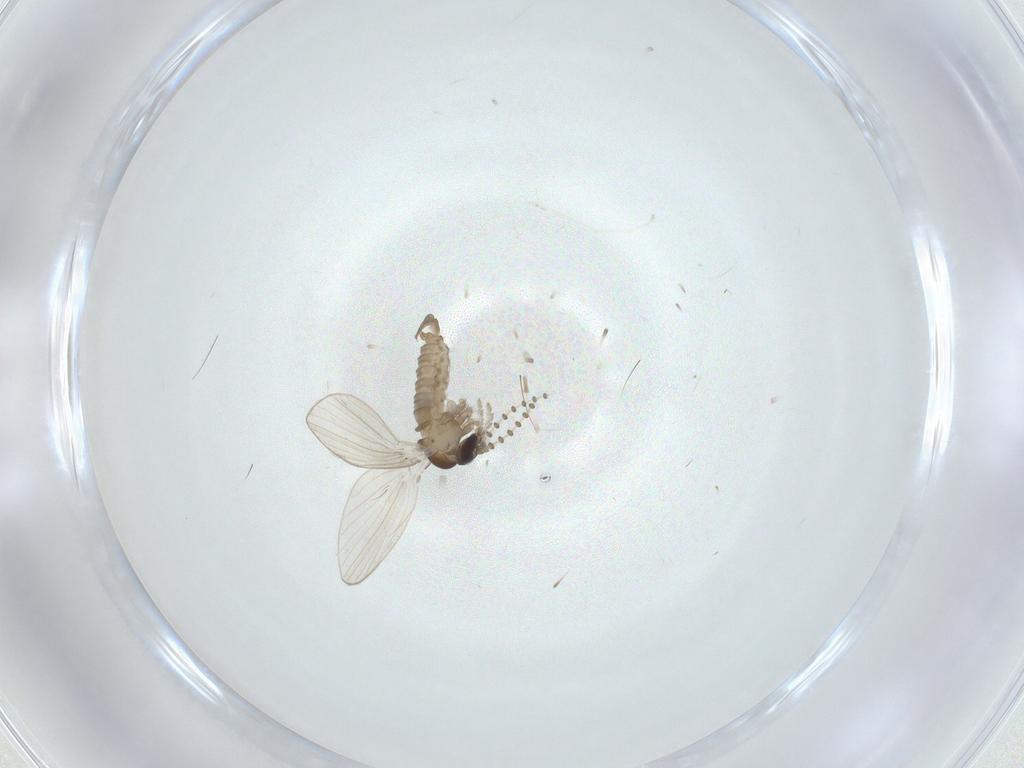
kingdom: Animalia
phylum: Arthropoda
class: Insecta
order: Diptera
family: Psychodidae
